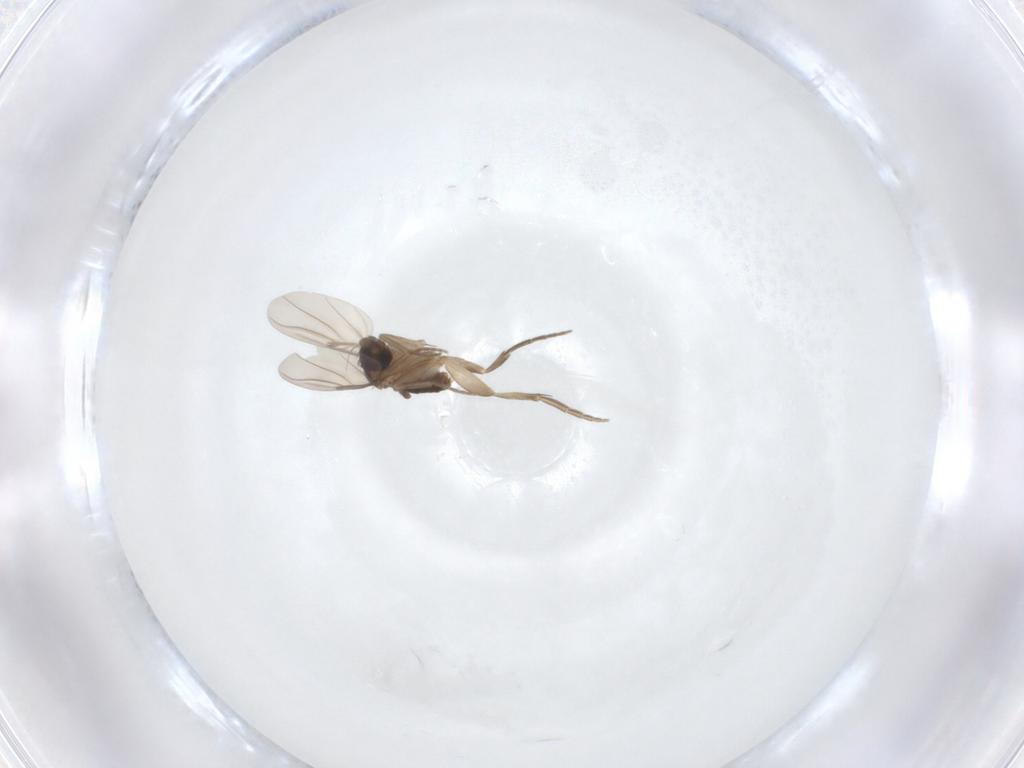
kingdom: Animalia
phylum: Arthropoda
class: Insecta
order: Diptera
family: Phoridae
